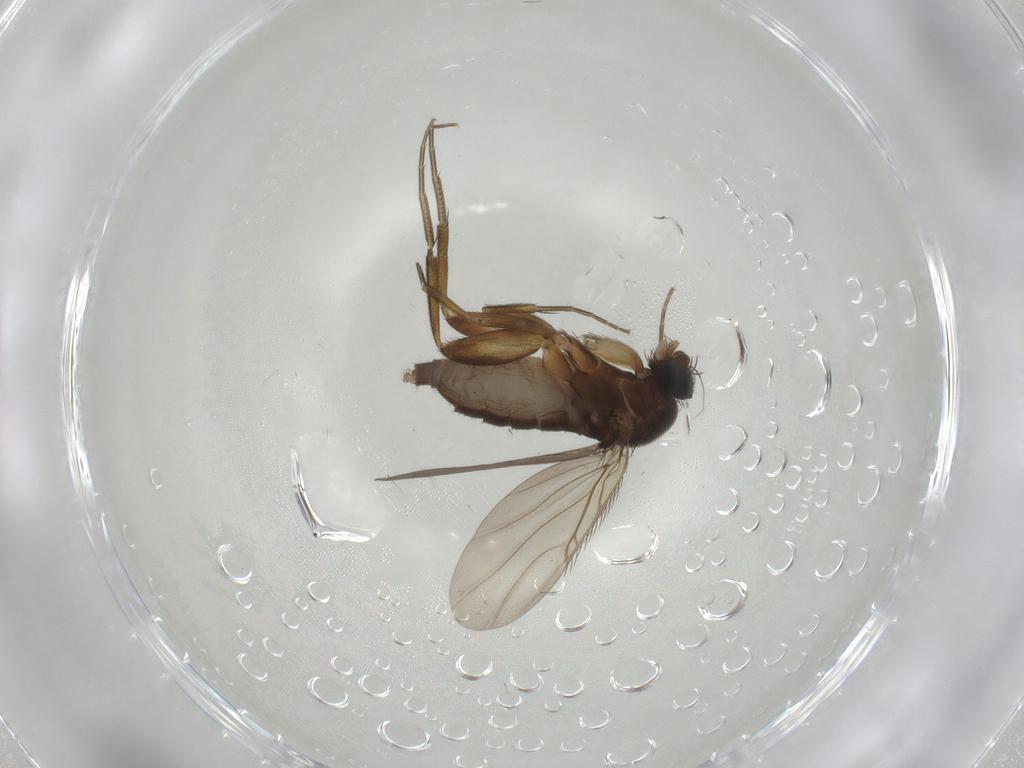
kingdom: Animalia
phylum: Arthropoda
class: Insecta
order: Diptera
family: Phoridae
